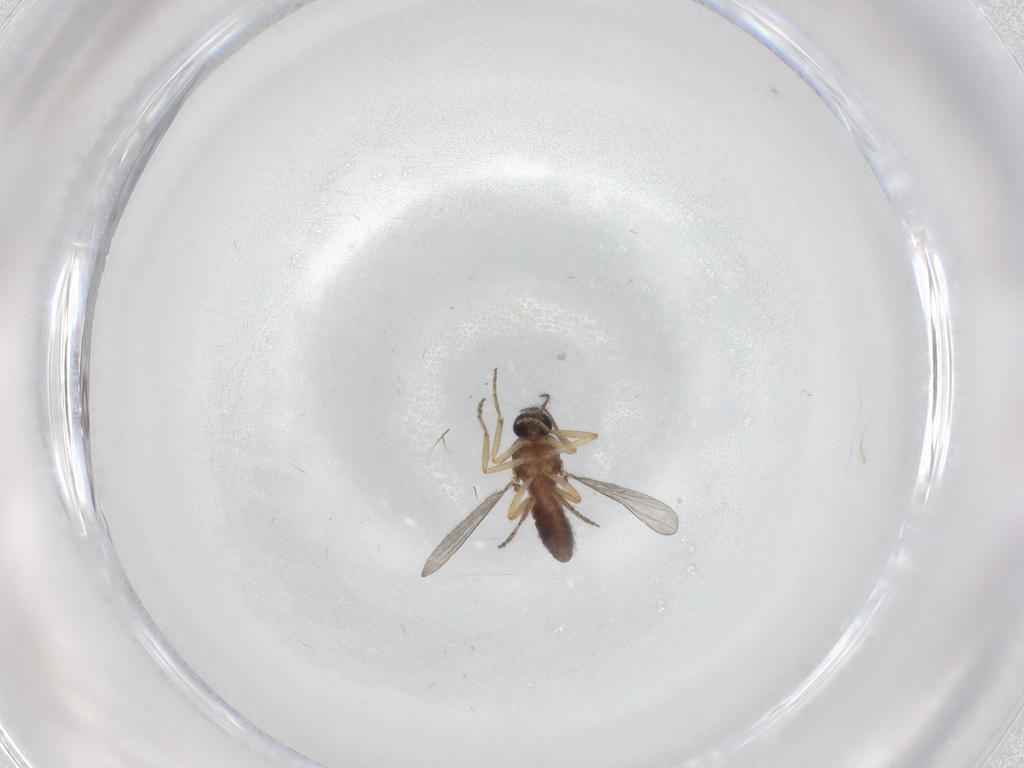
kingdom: Animalia
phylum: Arthropoda
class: Insecta
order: Diptera
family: Ceratopogonidae
